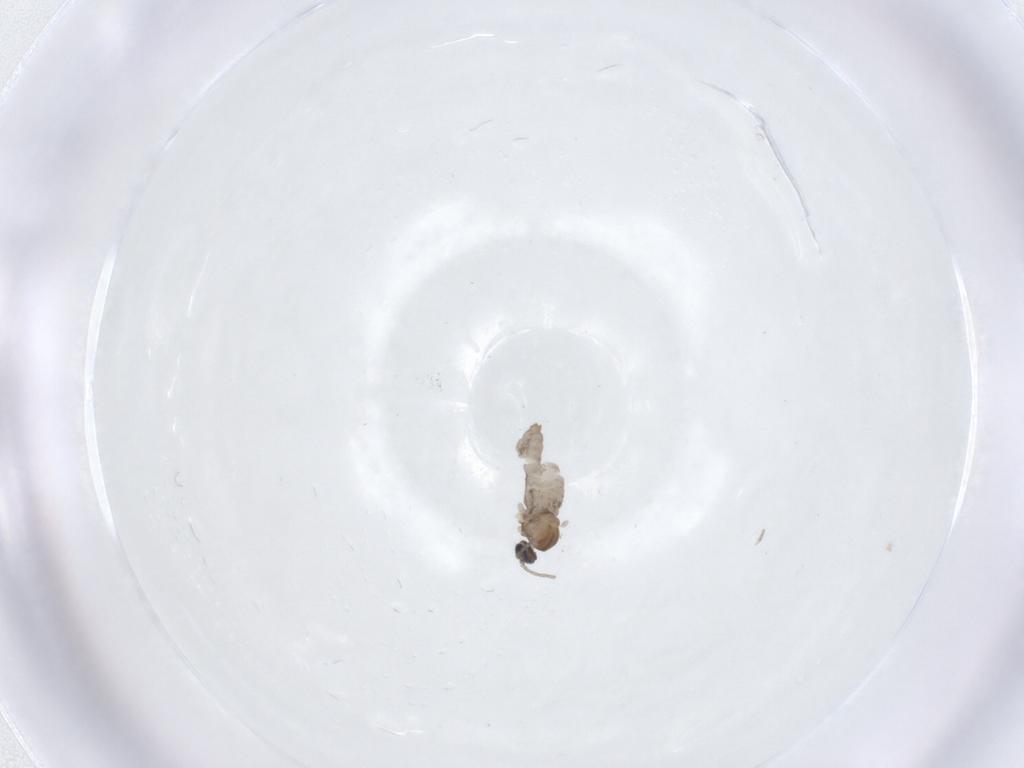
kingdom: Animalia
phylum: Arthropoda
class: Insecta
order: Diptera
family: Cecidomyiidae
